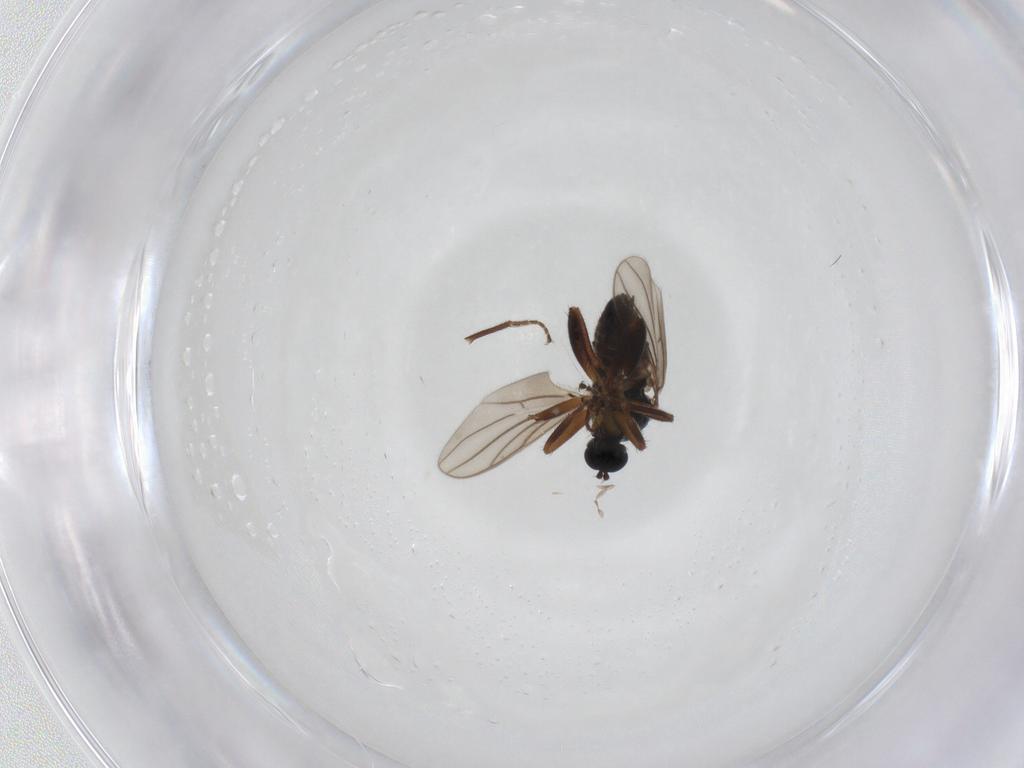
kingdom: Animalia
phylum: Arthropoda
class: Insecta
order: Diptera
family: Hybotidae
